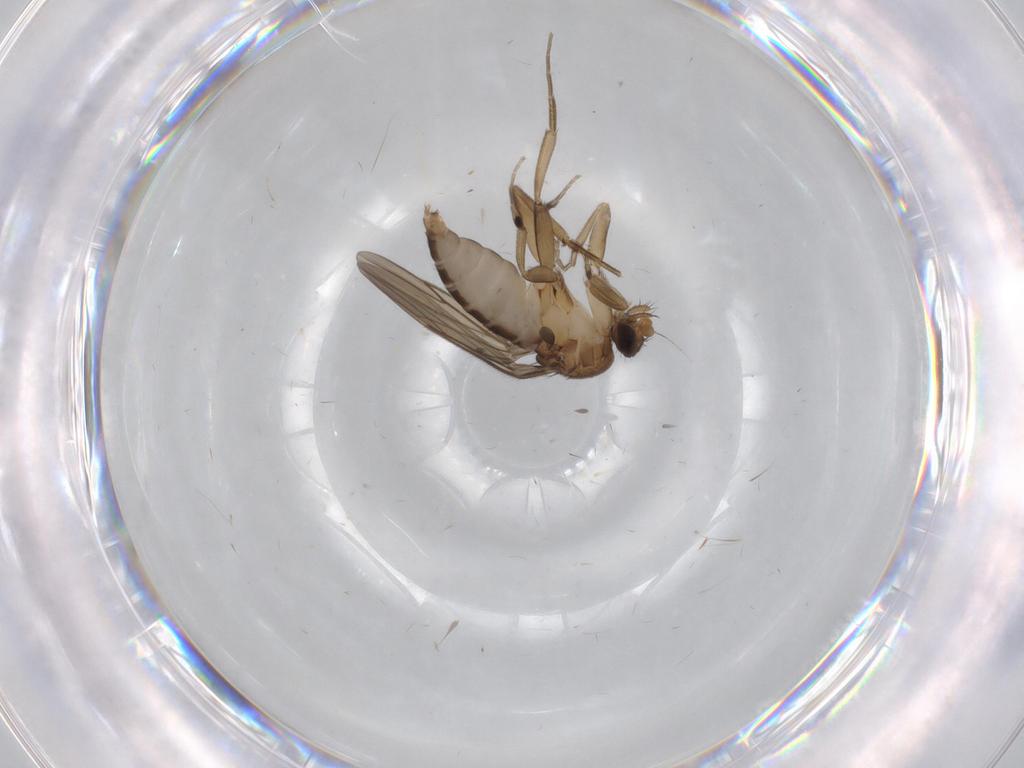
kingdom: Animalia
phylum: Arthropoda
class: Insecta
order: Diptera
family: Phoridae
